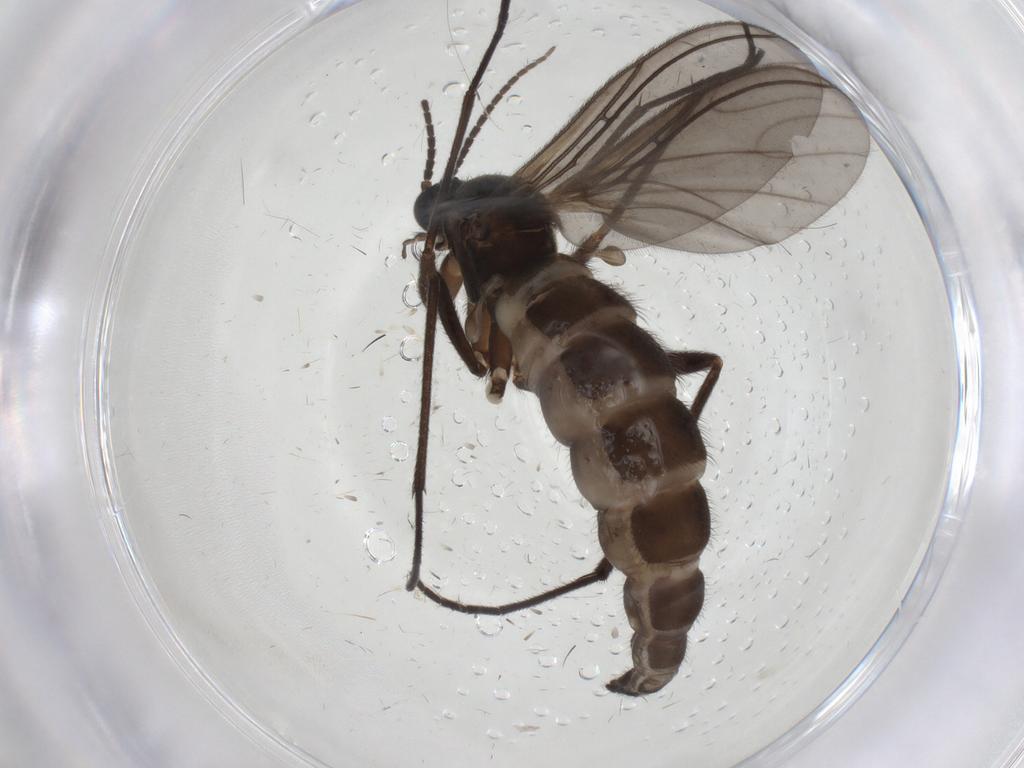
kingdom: Animalia
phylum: Arthropoda
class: Insecta
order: Diptera
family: Sciaridae
